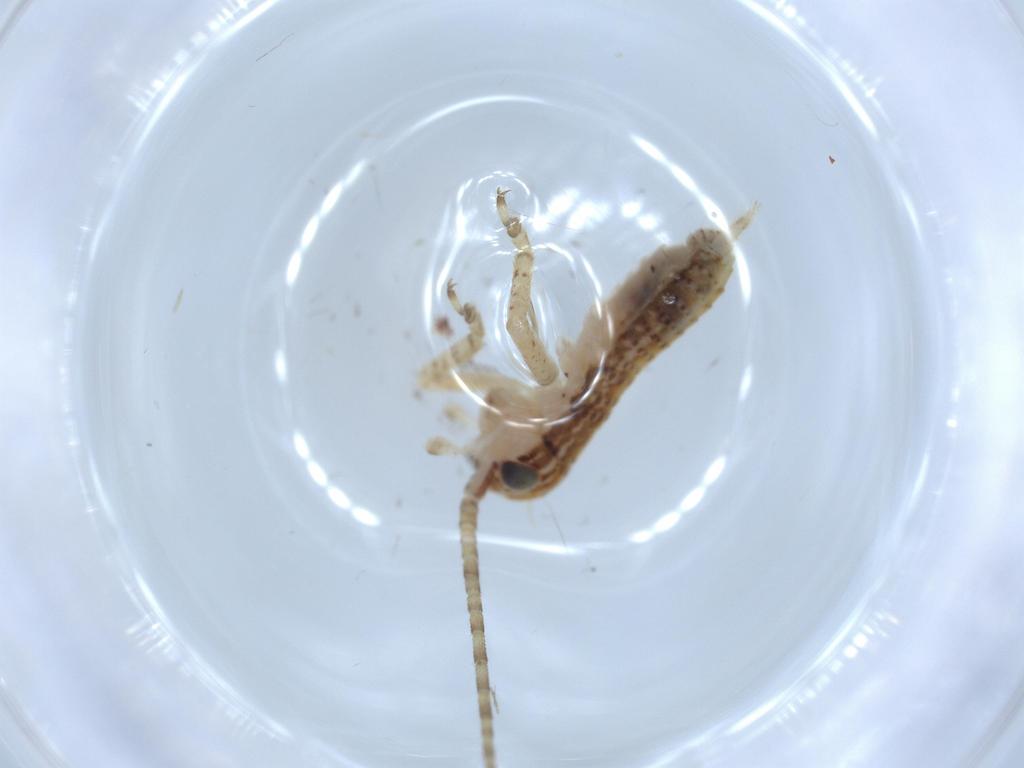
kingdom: Animalia
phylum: Arthropoda
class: Insecta
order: Orthoptera
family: Gryllidae
